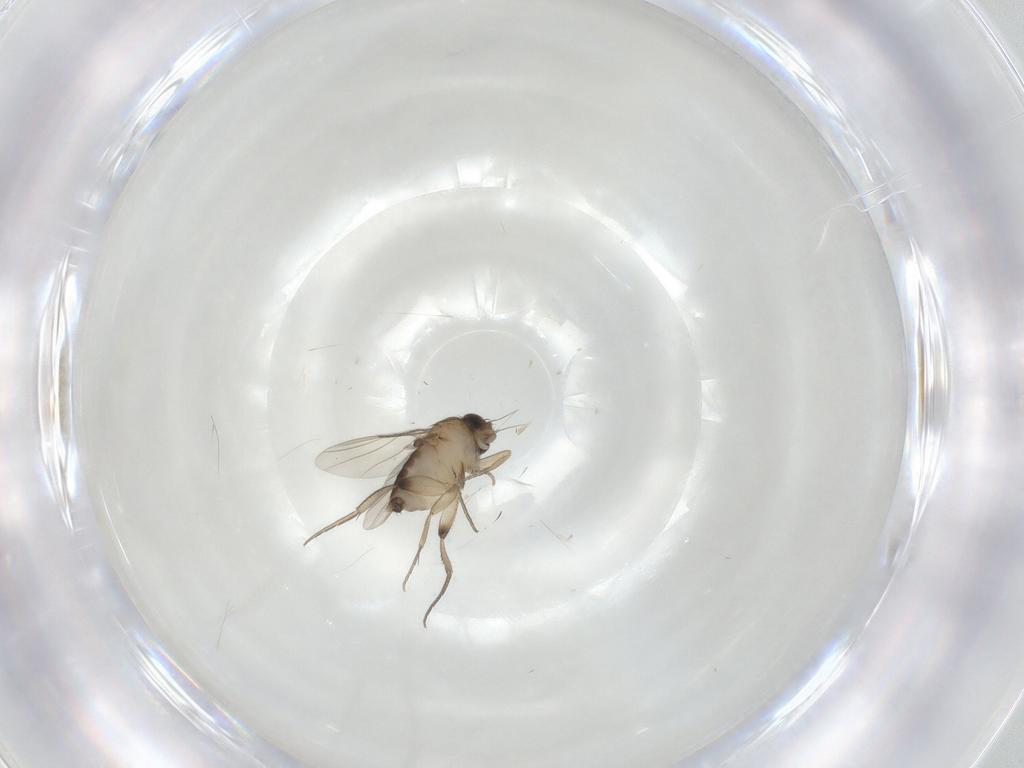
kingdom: Animalia
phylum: Arthropoda
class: Insecta
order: Diptera
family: Phoridae
